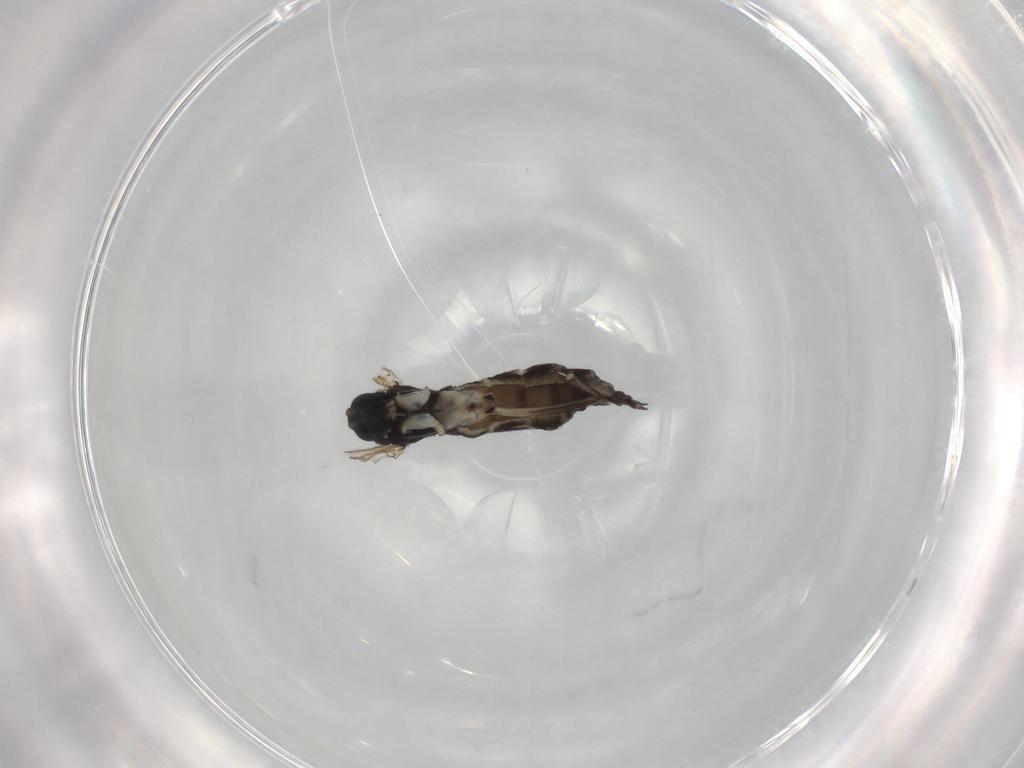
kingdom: Animalia
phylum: Arthropoda
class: Insecta
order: Diptera
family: Sciaridae
